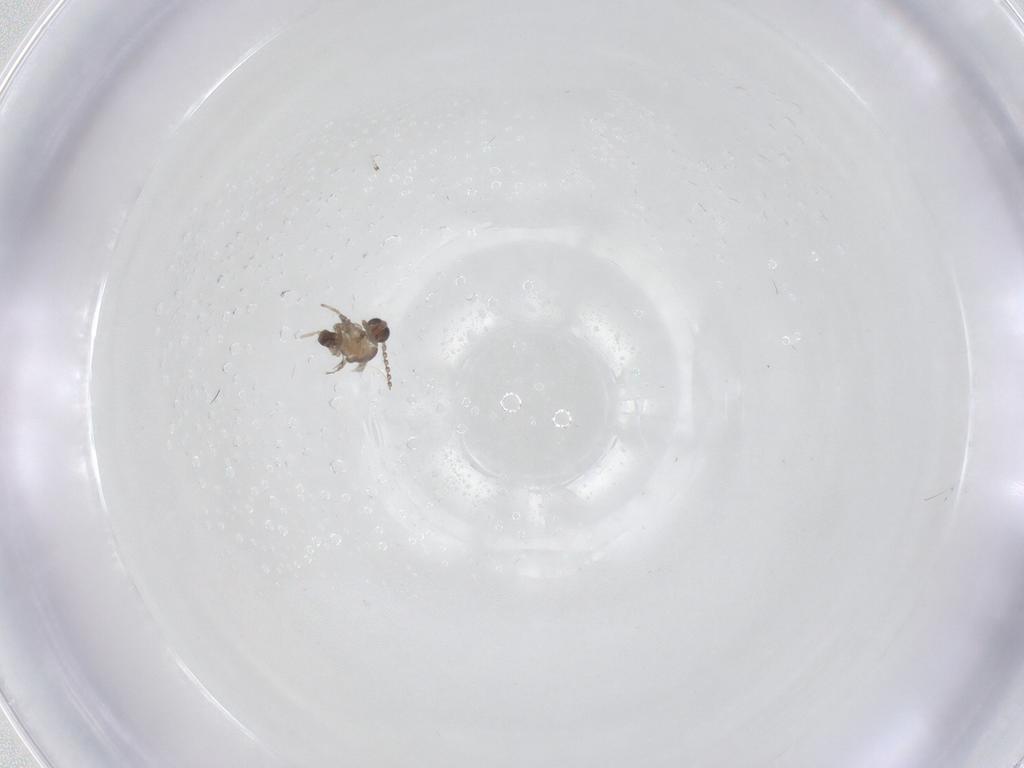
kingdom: Animalia
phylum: Arthropoda
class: Insecta
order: Diptera
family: Cecidomyiidae
